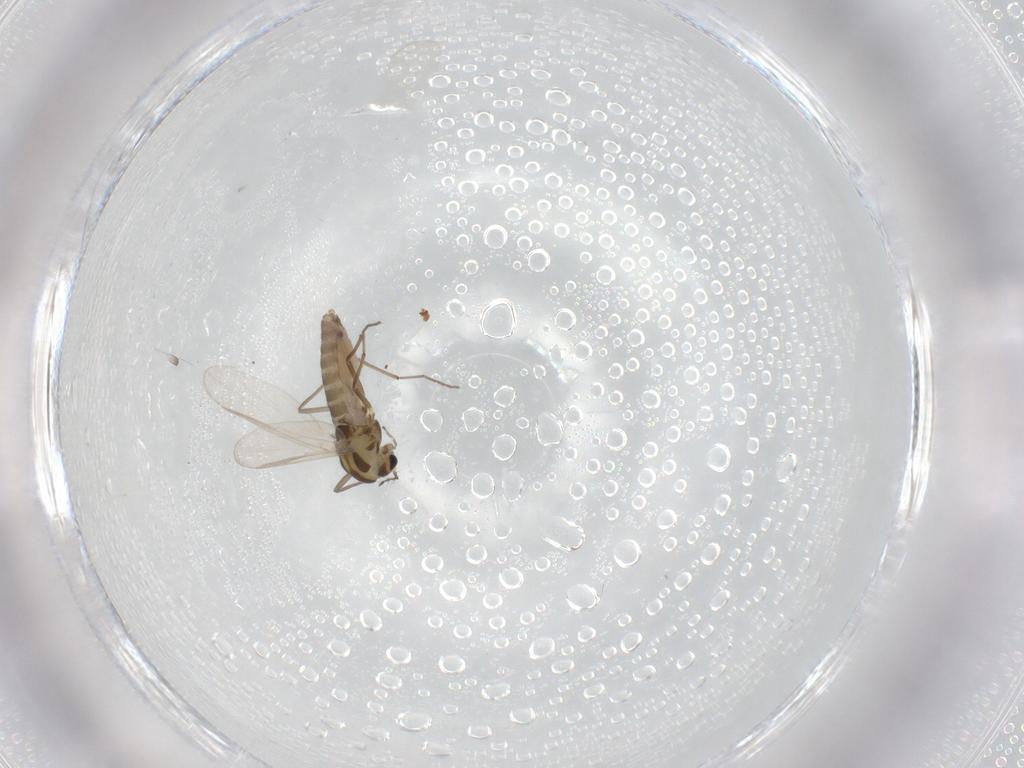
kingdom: Animalia
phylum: Arthropoda
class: Insecta
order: Diptera
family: Chironomidae
